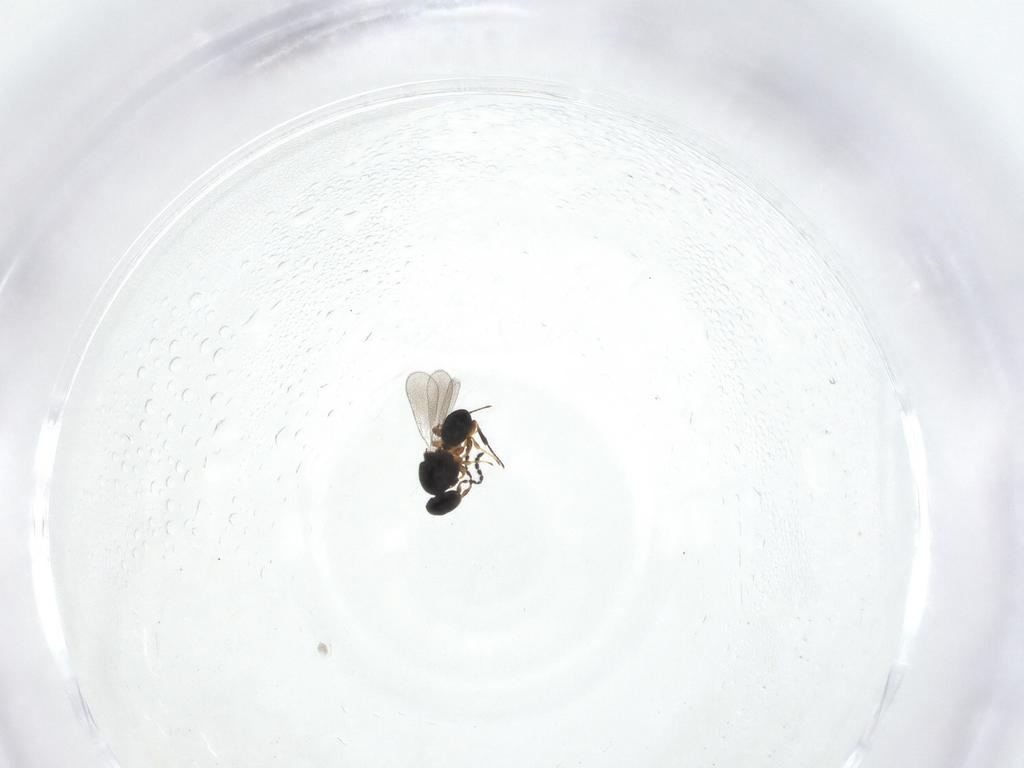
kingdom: Animalia
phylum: Arthropoda
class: Insecta
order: Hymenoptera
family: Platygastridae
